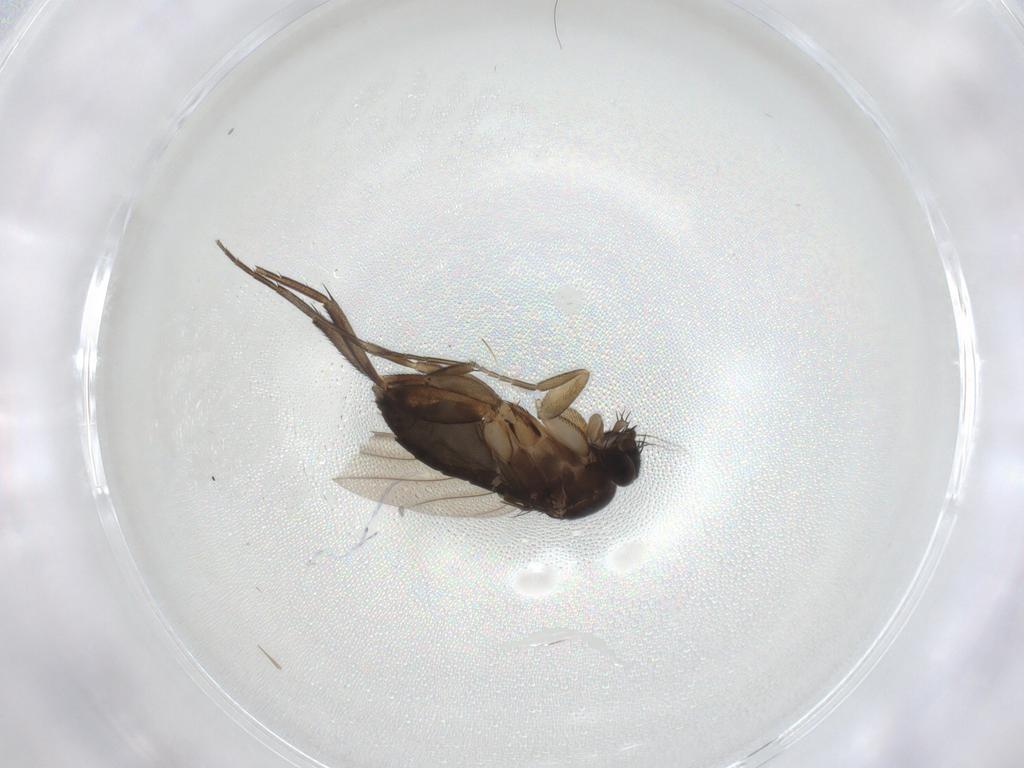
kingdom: Animalia
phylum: Arthropoda
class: Insecta
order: Diptera
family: Phoridae
